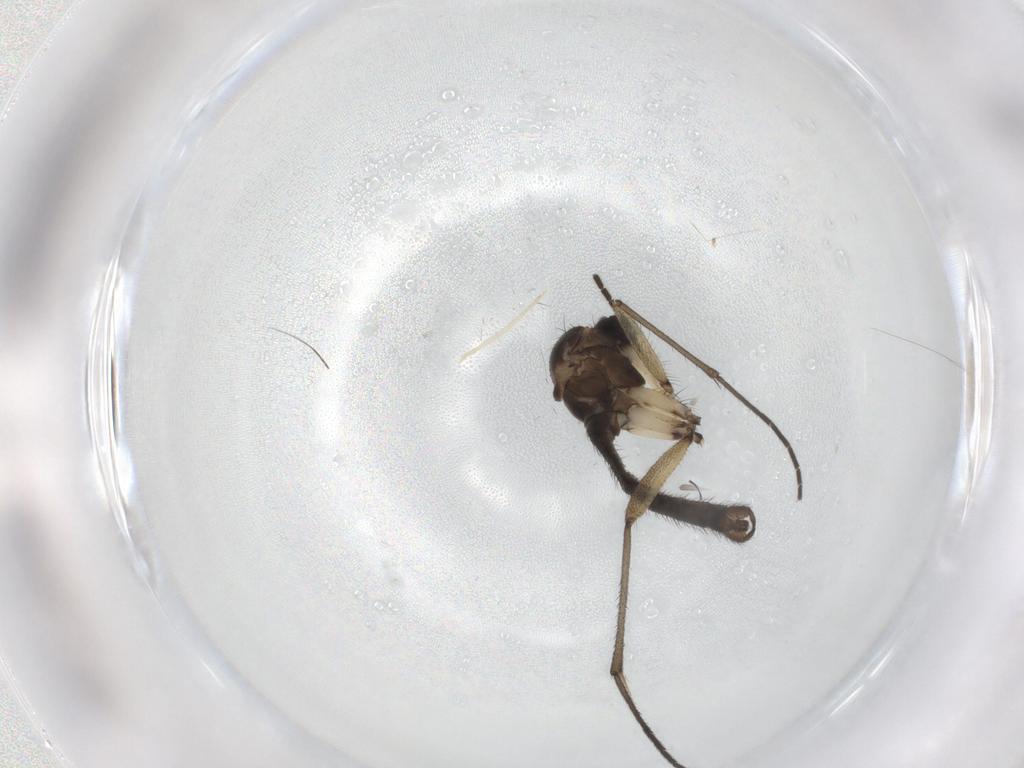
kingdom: Animalia
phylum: Arthropoda
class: Insecta
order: Diptera
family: Sciaridae
